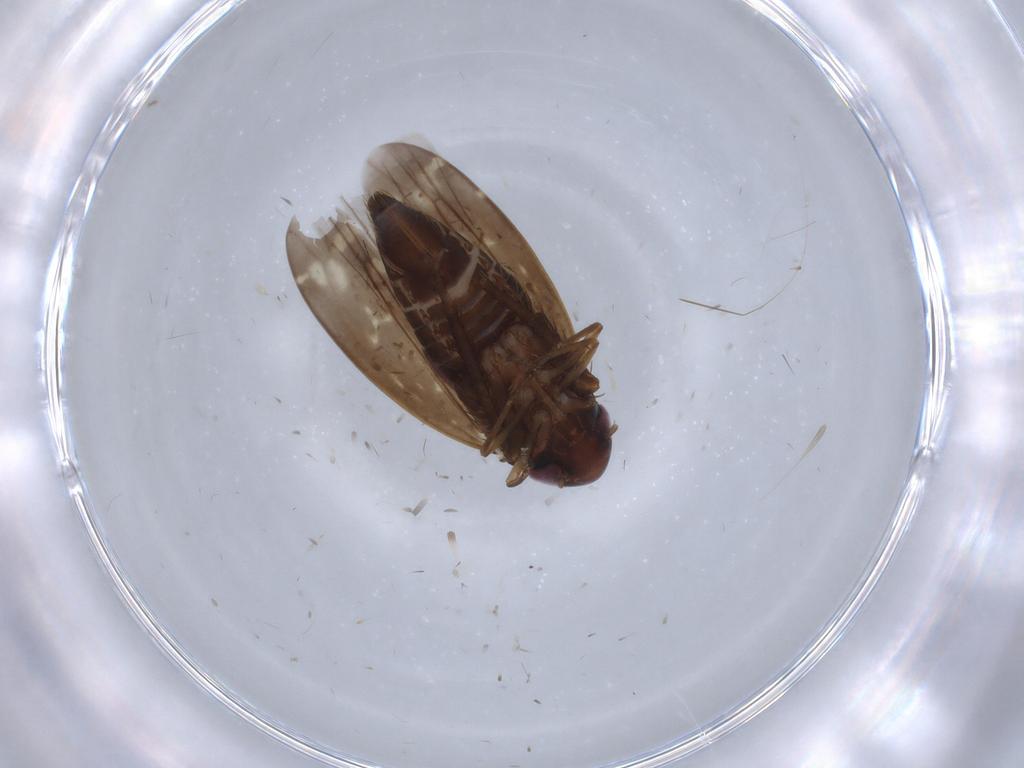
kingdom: Animalia
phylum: Arthropoda
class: Insecta
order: Hemiptera
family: Cicadellidae
